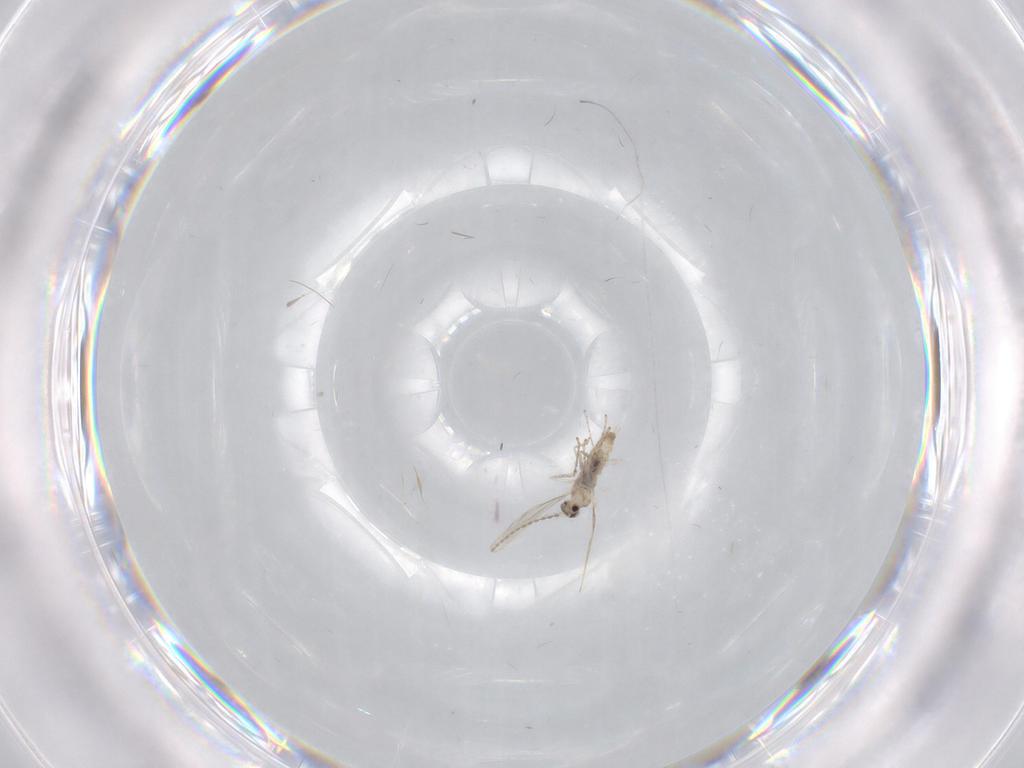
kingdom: Animalia
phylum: Arthropoda
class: Insecta
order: Diptera
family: Cecidomyiidae
